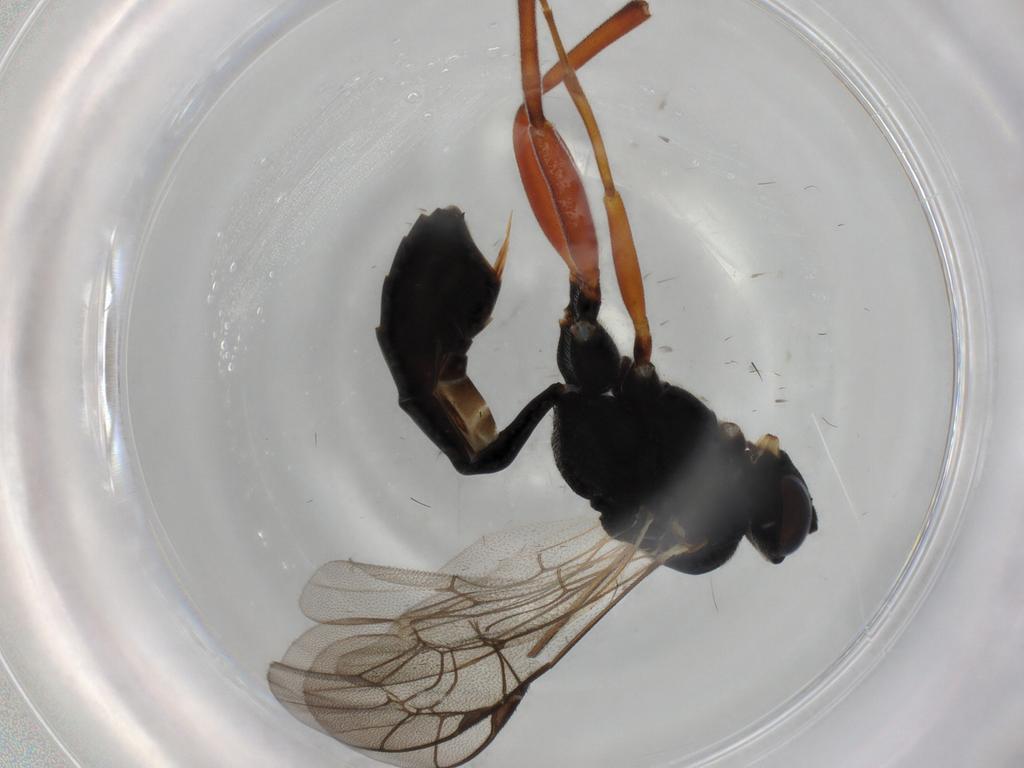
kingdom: Animalia
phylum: Arthropoda
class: Insecta
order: Hymenoptera
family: Ichneumonidae
